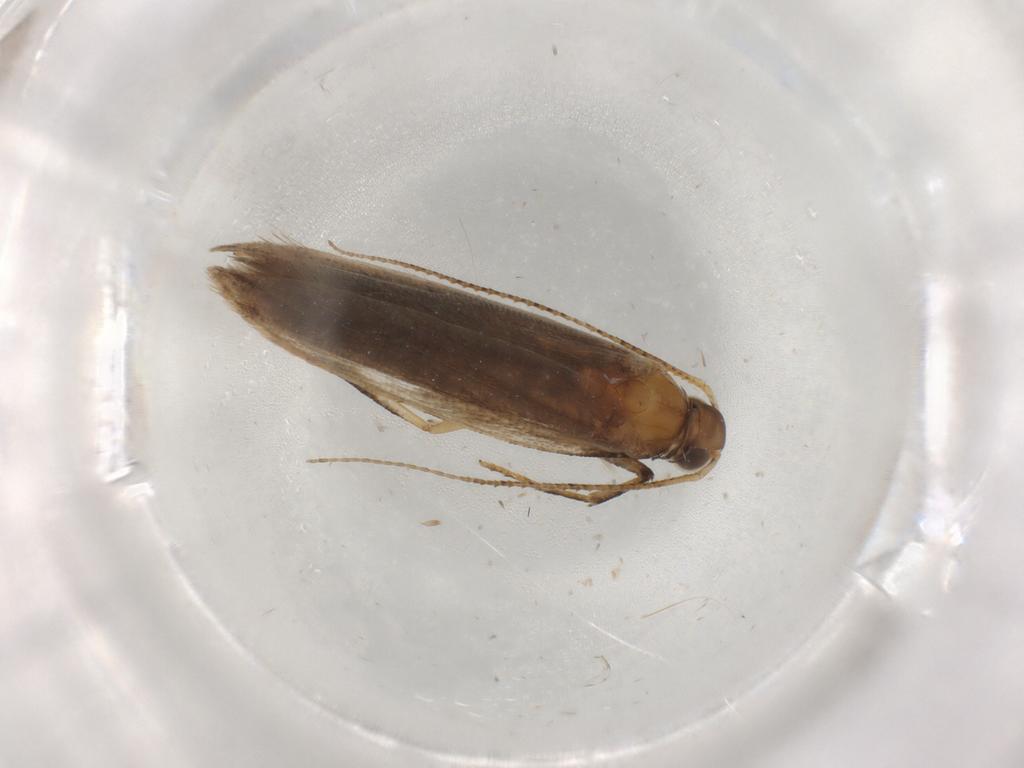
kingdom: Animalia
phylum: Arthropoda
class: Insecta
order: Lepidoptera
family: Gelechiidae
